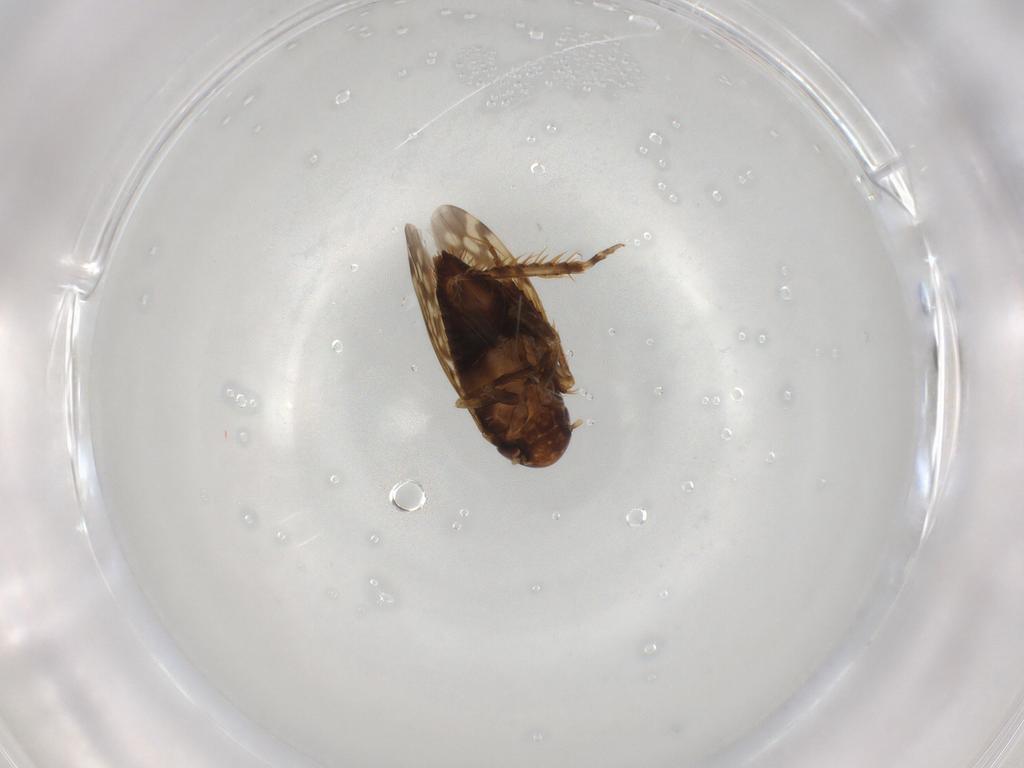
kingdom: Animalia
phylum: Arthropoda
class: Insecta
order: Hemiptera
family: Cicadellidae
